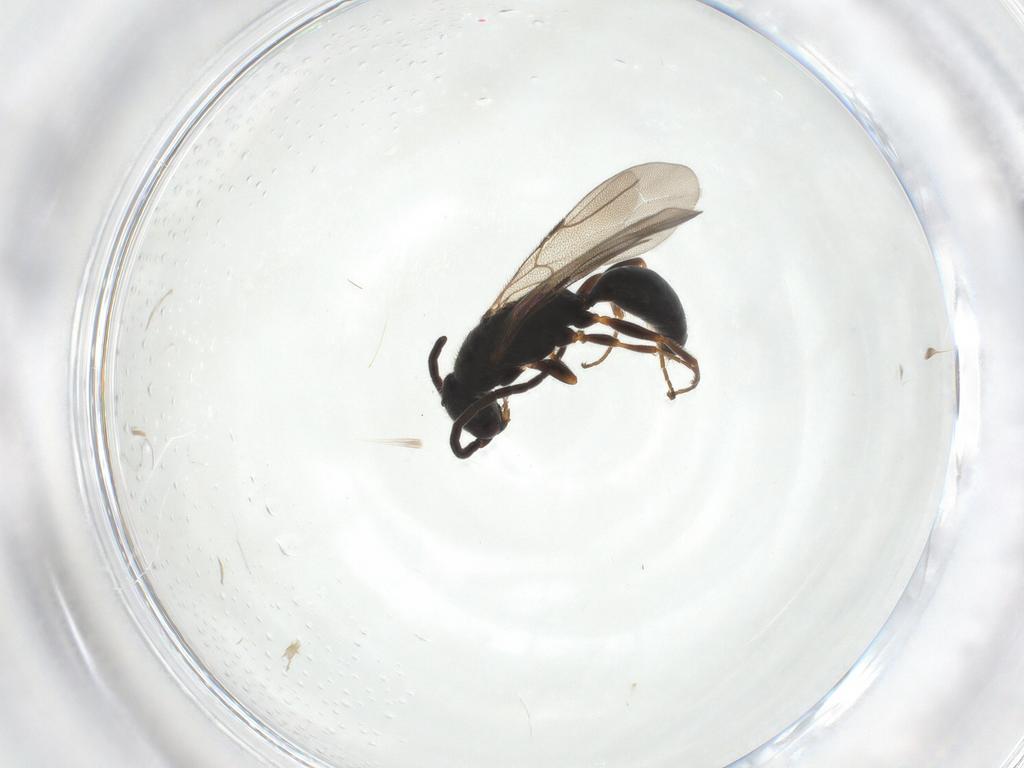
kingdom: Animalia
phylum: Arthropoda
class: Insecta
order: Hymenoptera
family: Bethylidae
